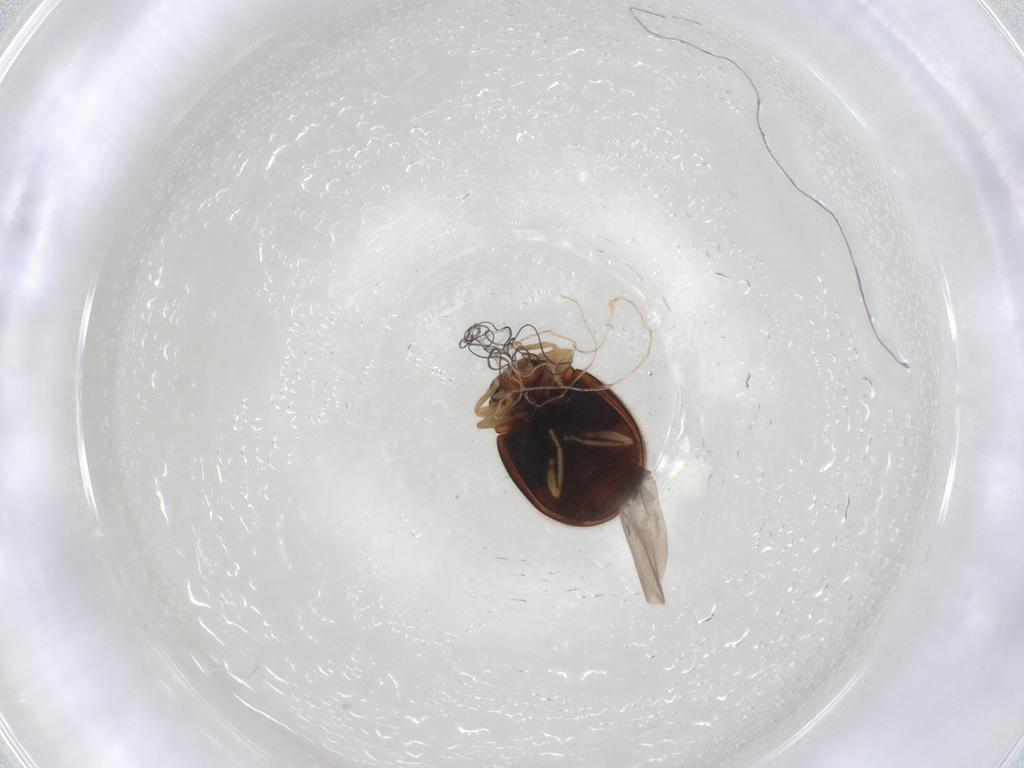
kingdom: Animalia
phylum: Arthropoda
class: Insecta
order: Coleoptera
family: Coccinellidae
